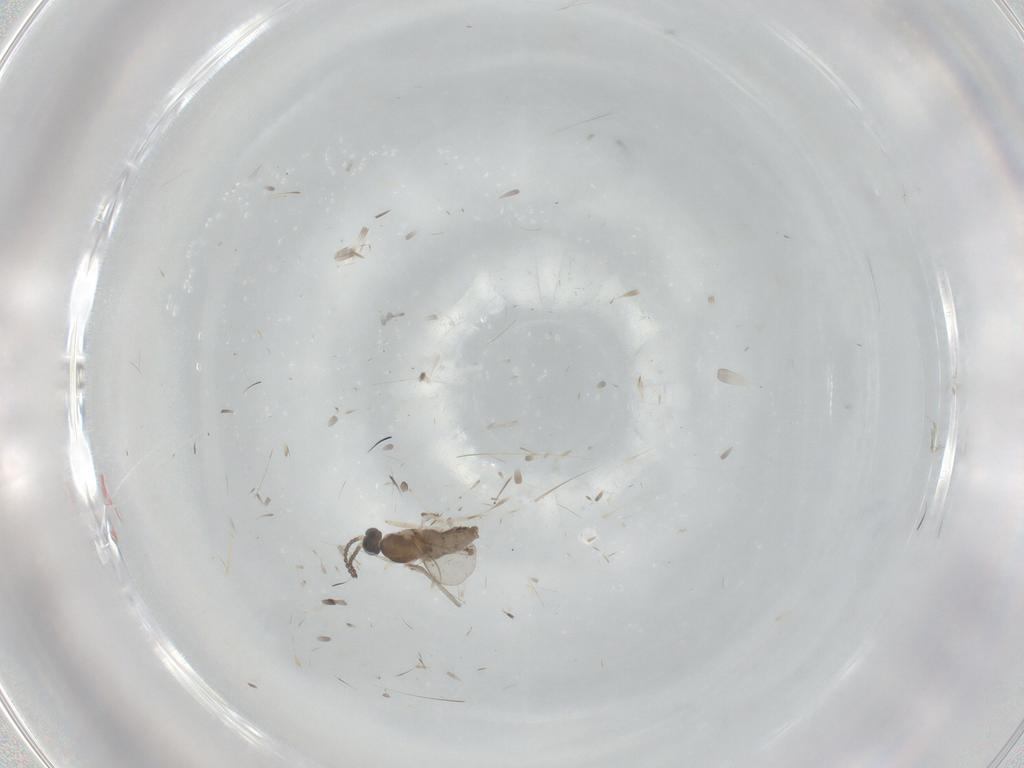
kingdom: Animalia
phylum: Arthropoda
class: Insecta
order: Diptera
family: Cecidomyiidae
